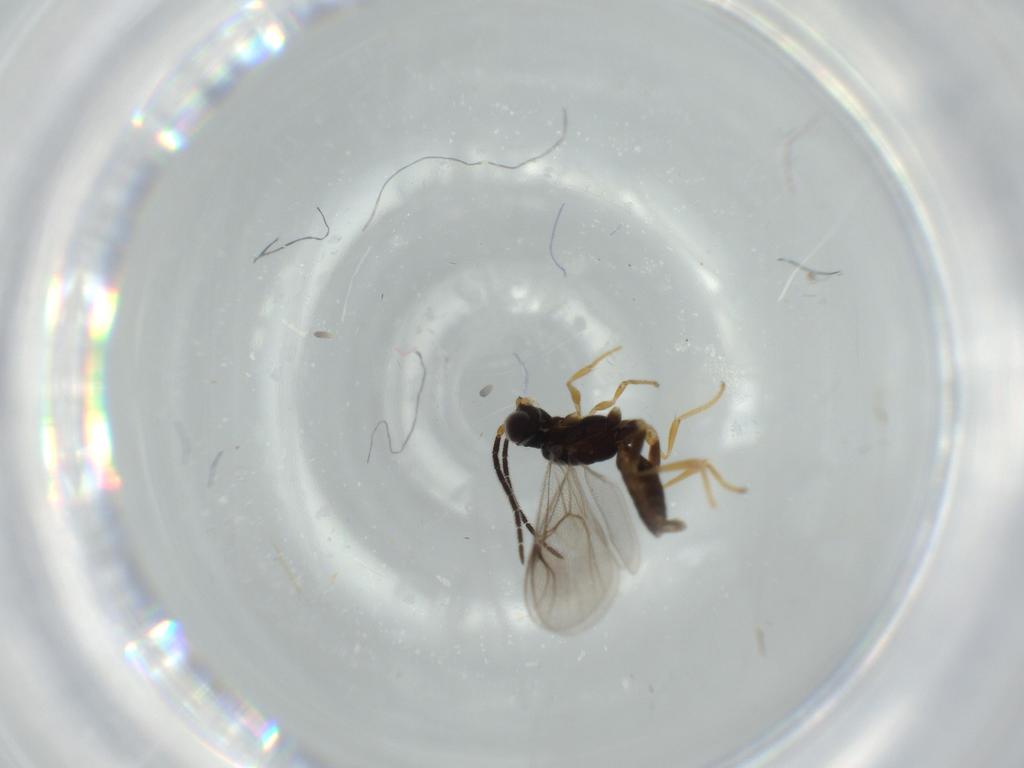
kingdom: Animalia
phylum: Arthropoda
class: Insecta
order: Hymenoptera
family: Dryinidae
